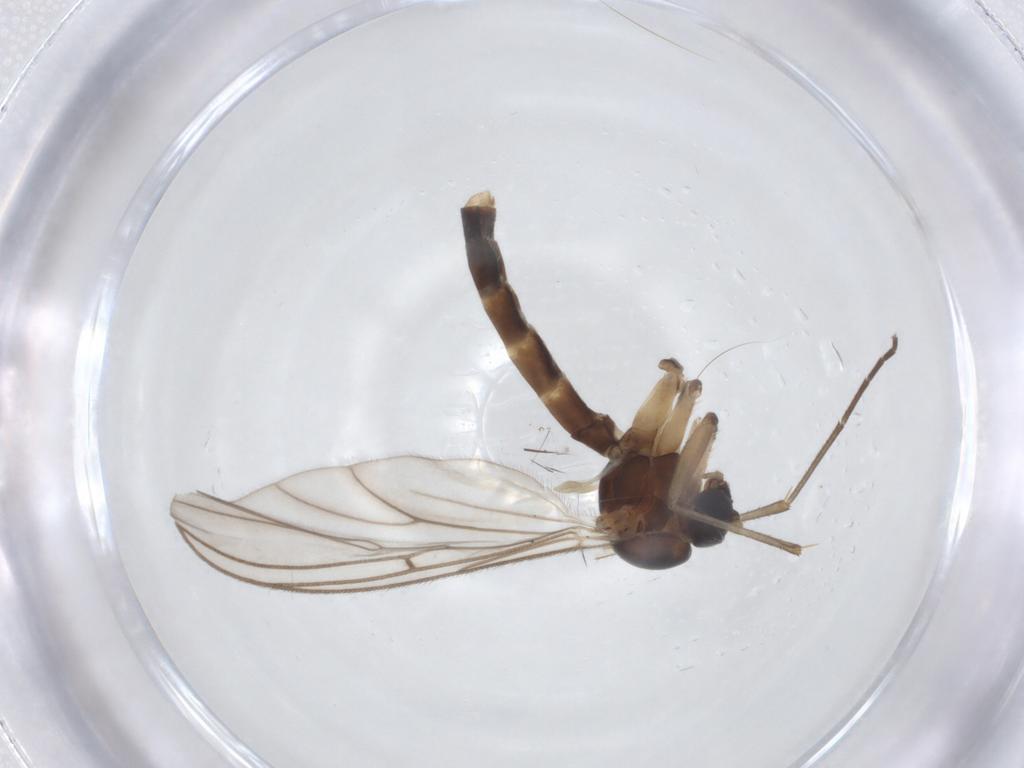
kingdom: Animalia
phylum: Arthropoda
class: Insecta
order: Diptera
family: Mycetophilidae
